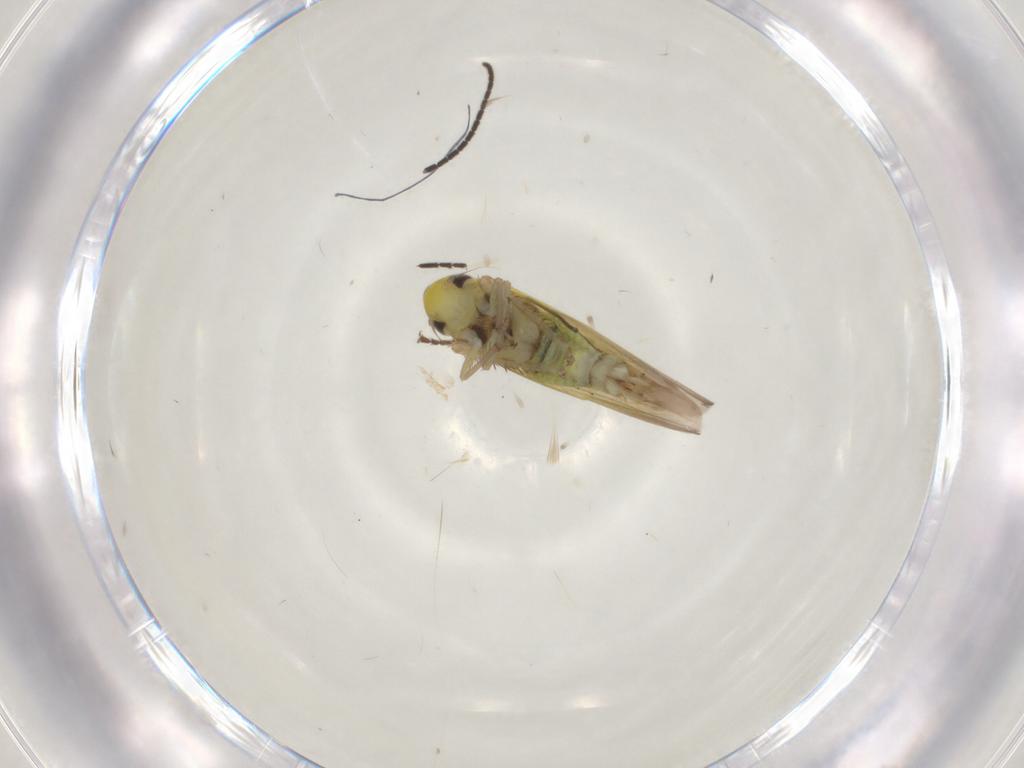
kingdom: Animalia
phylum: Arthropoda
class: Insecta
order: Hemiptera
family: Cicadellidae
